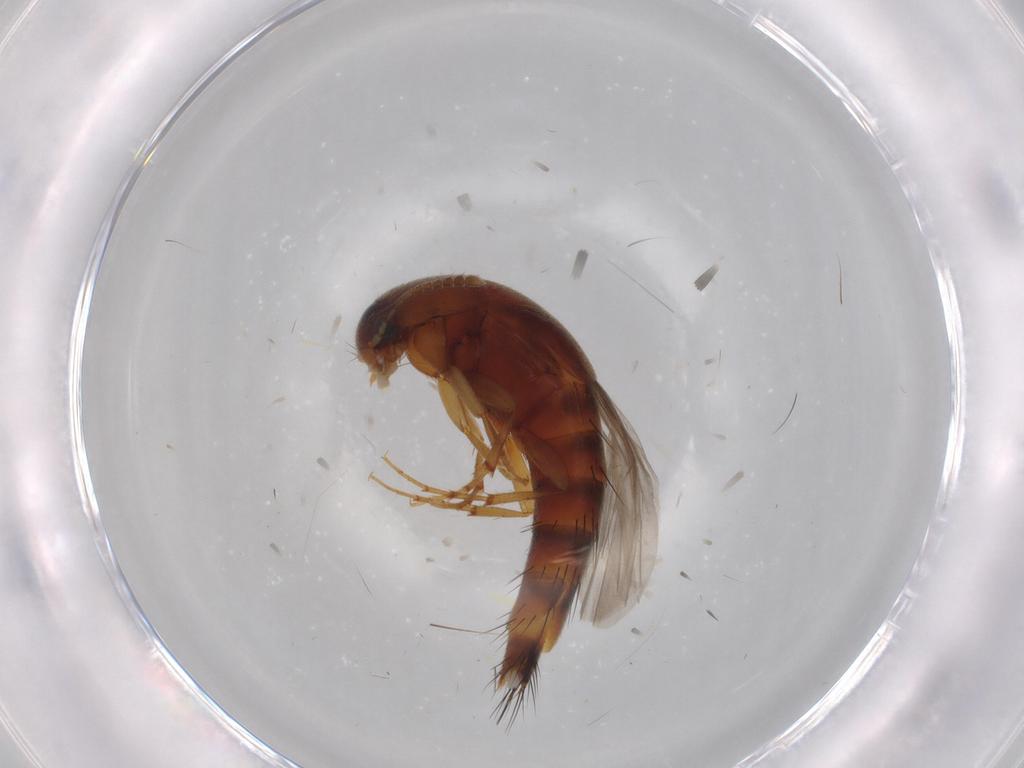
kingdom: Animalia
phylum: Arthropoda
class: Insecta
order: Coleoptera
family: Staphylinidae
